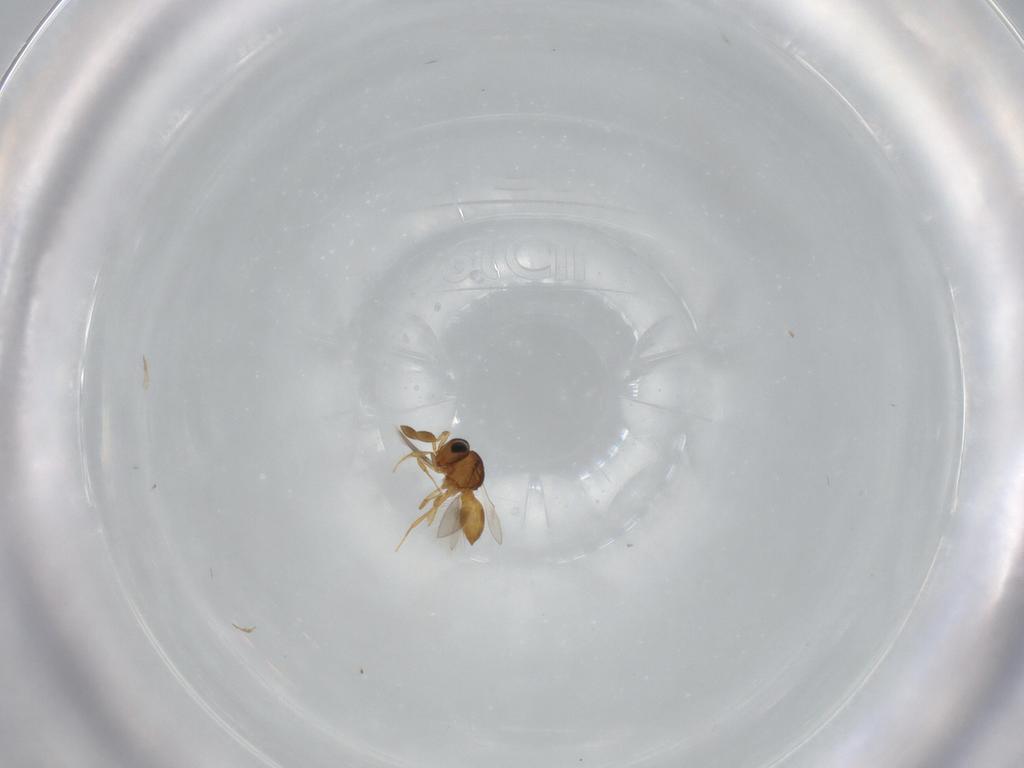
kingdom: Animalia
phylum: Arthropoda
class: Insecta
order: Hymenoptera
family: Scelionidae
